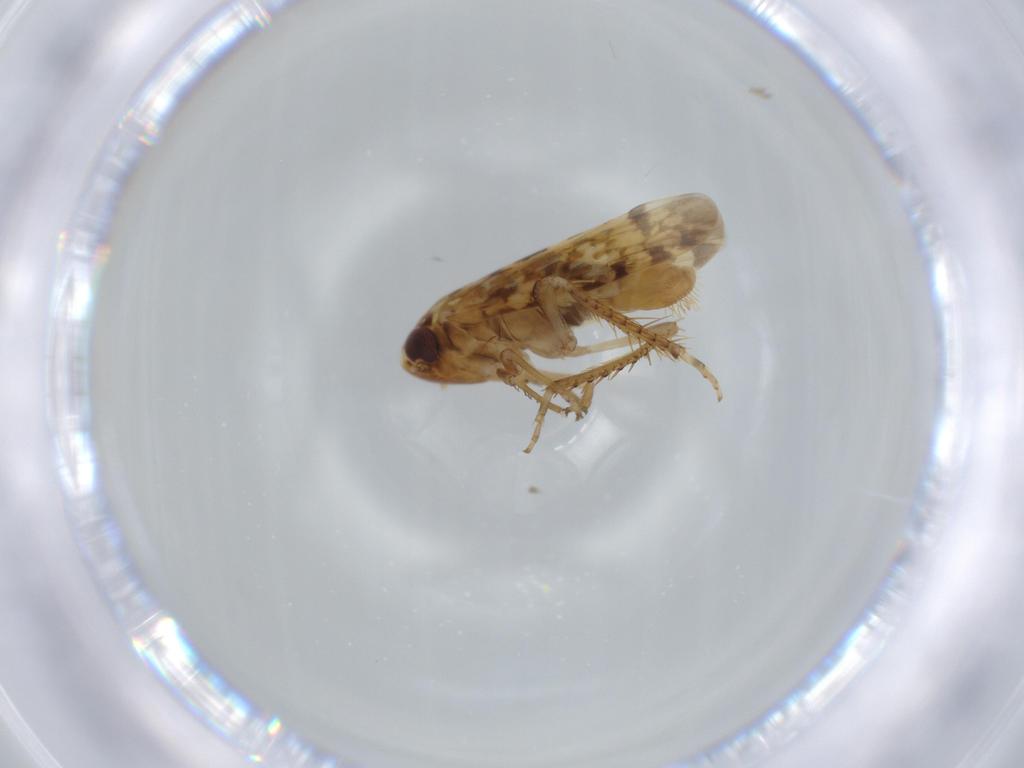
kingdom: Animalia
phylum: Arthropoda
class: Insecta
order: Hemiptera
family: Cicadellidae
